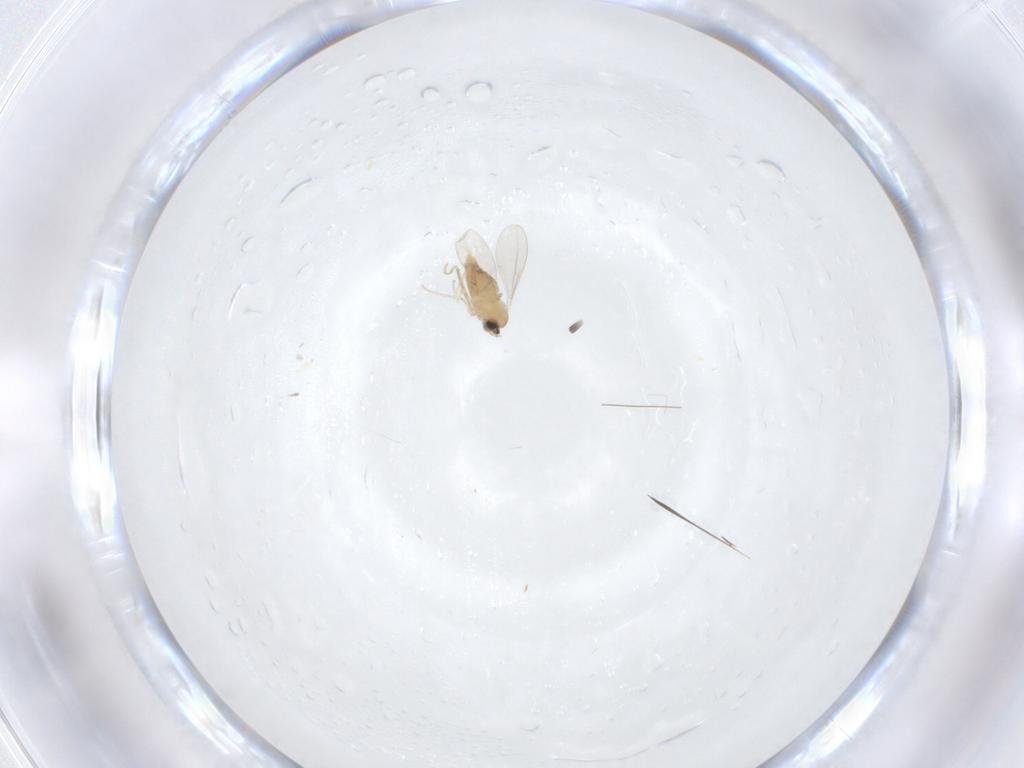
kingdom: Animalia
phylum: Arthropoda
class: Insecta
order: Diptera
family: Cecidomyiidae
